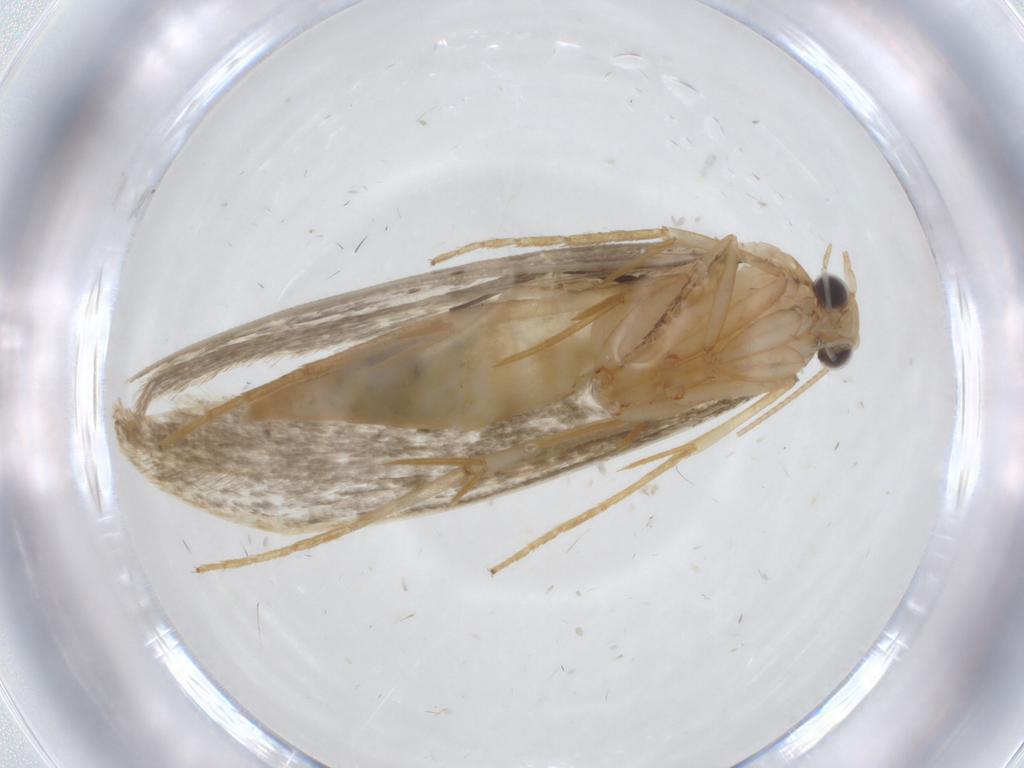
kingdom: Animalia
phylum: Arthropoda
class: Insecta
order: Lepidoptera
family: Tineidae
